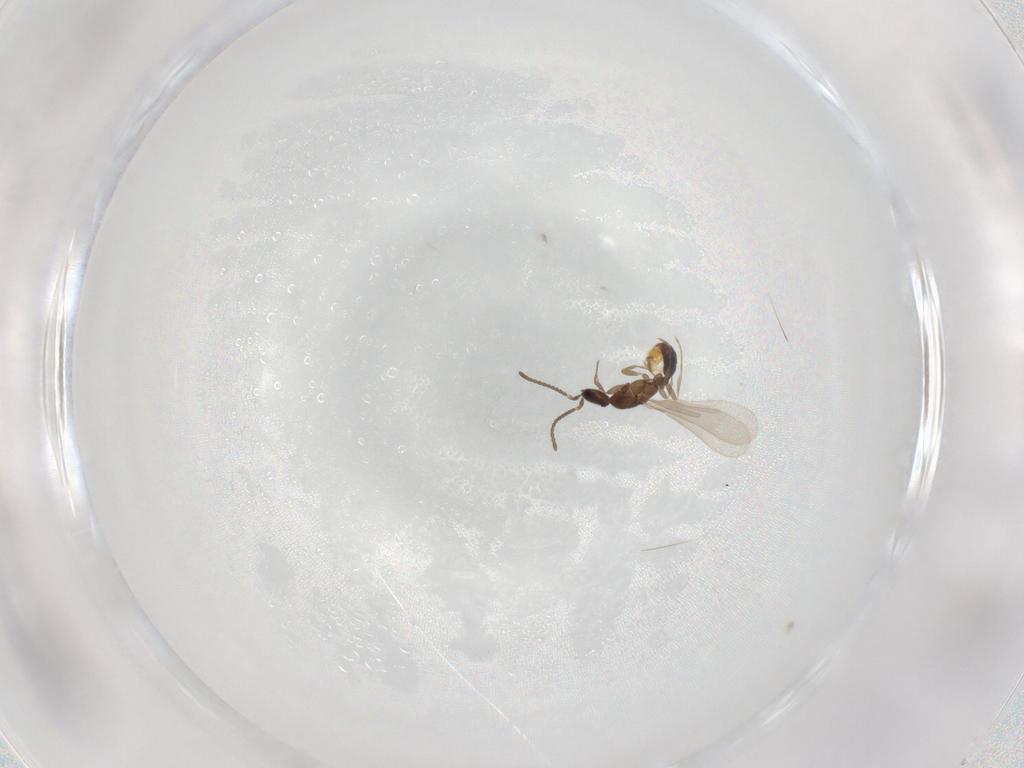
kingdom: Animalia
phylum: Arthropoda
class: Insecta
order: Hymenoptera
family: Formicidae
